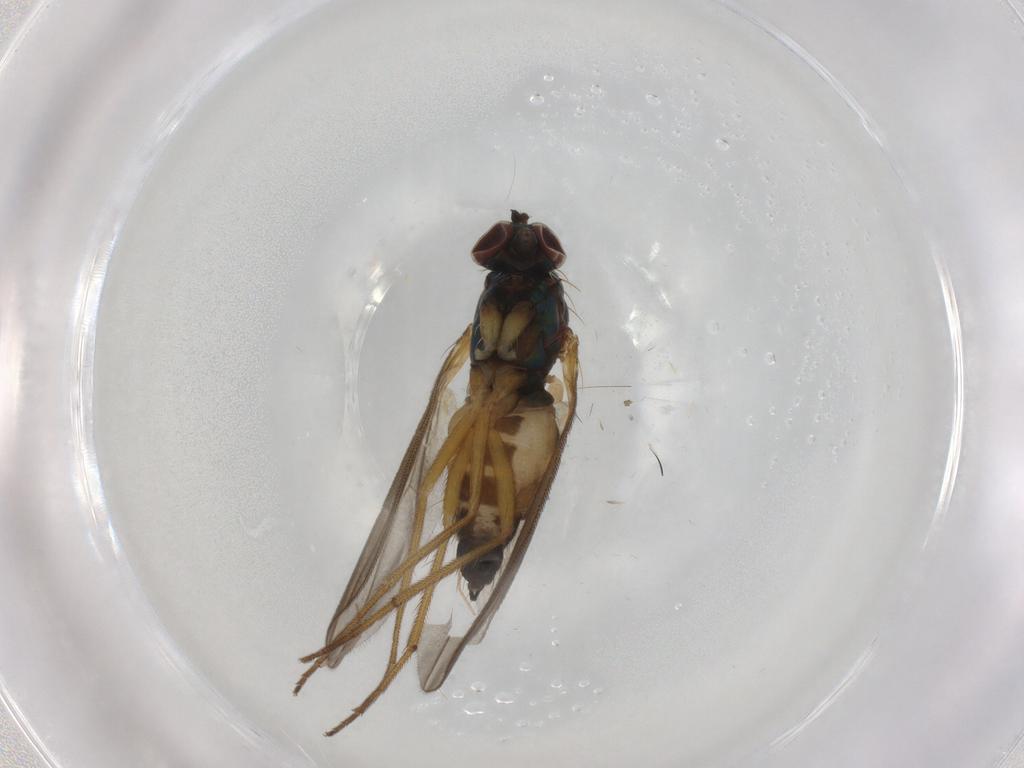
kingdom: Animalia
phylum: Arthropoda
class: Insecta
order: Diptera
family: Dolichopodidae
